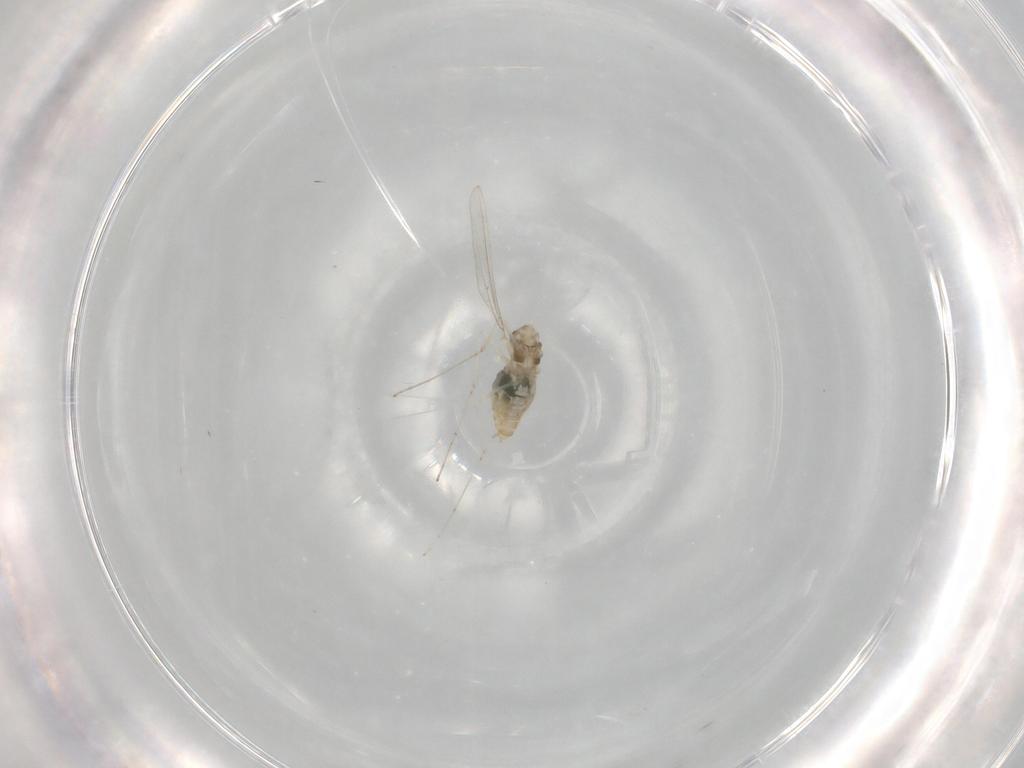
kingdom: Animalia
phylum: Arthropoda
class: Insecta
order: Diptera
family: Cecidomyiidae
